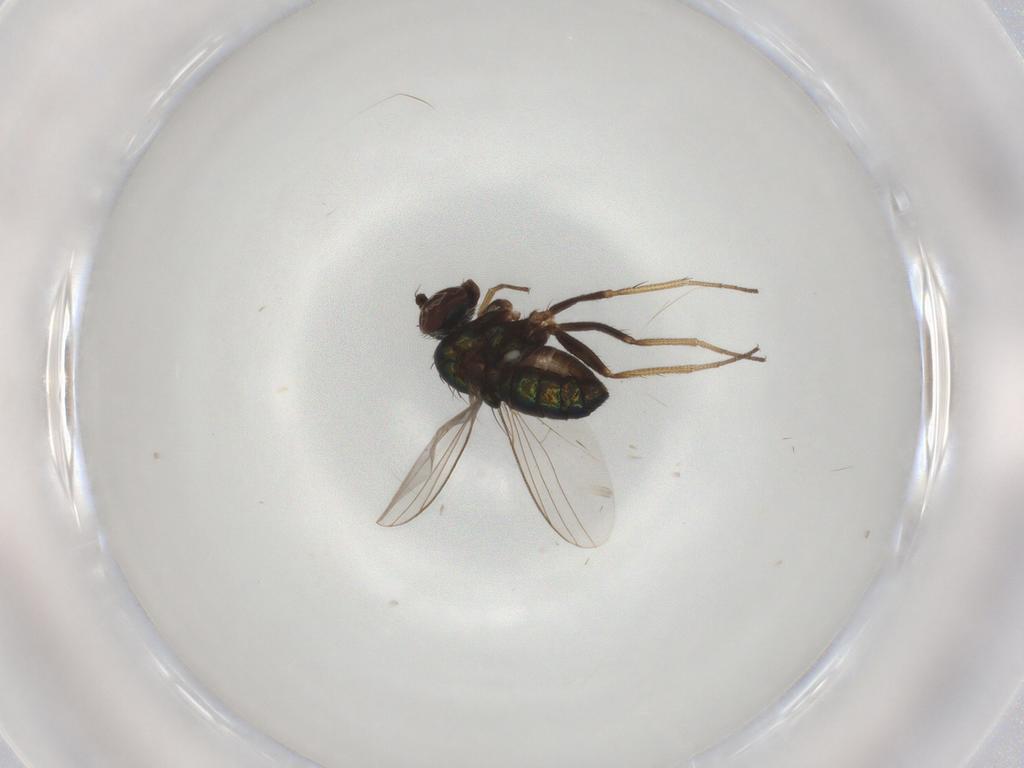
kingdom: Animalia
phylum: Arthropoda
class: Insecta
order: Diptera
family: Dolichopodidae
